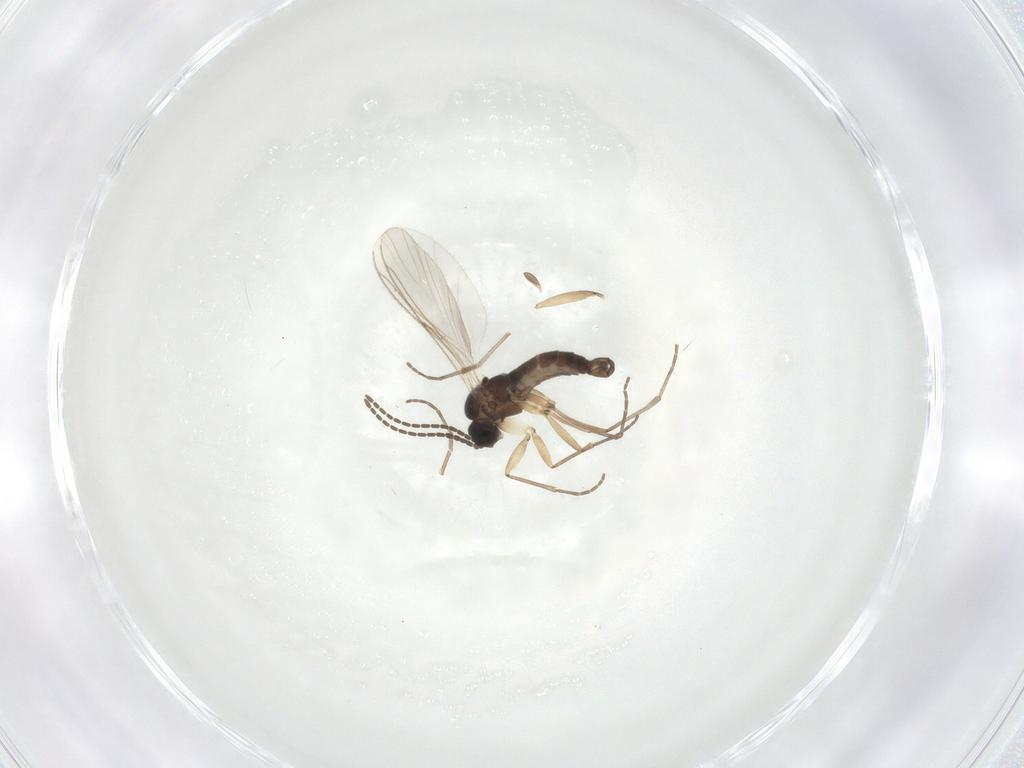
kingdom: Animalia
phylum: Arthropoda
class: Insecta
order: Diptera
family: Sciaridae
